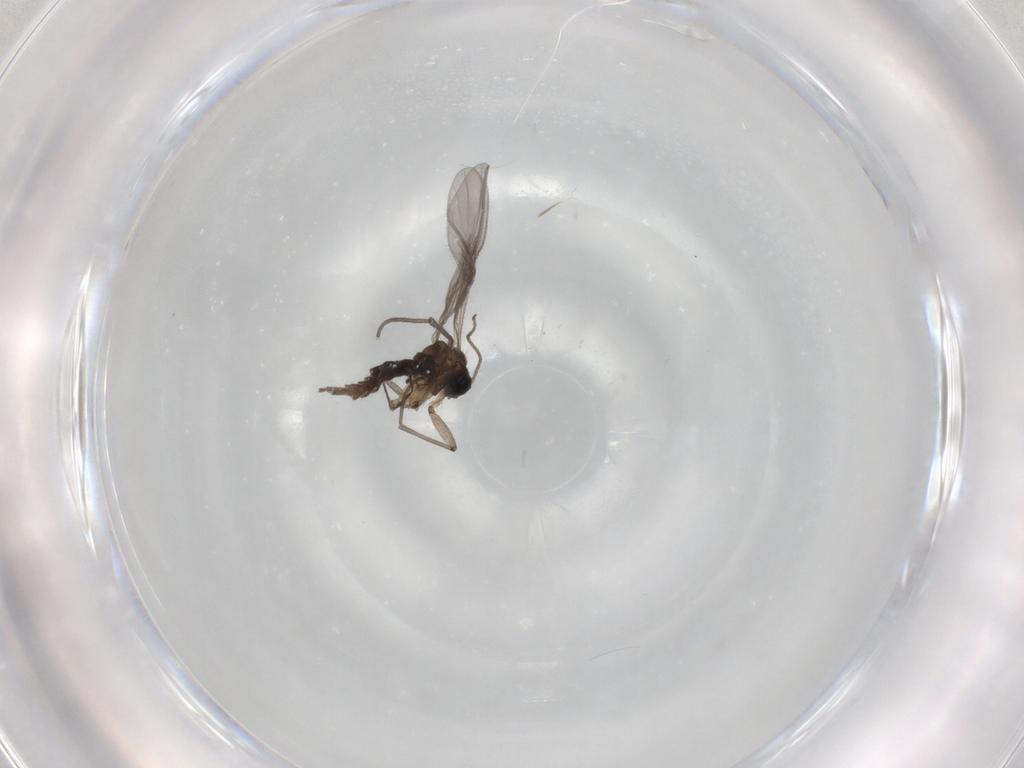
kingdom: Animalia
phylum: Arthropoda
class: Insecta
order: Diptera
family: Sciaridae
